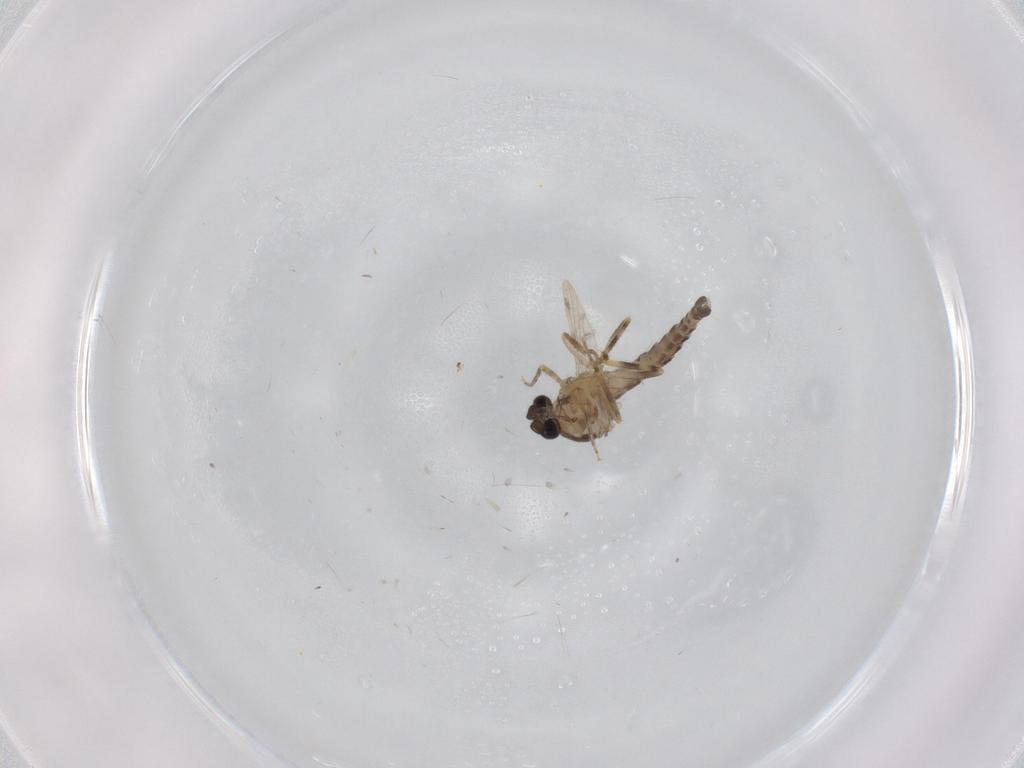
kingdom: Animalia
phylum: Arthropoda
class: Insecta
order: Diptera
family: Ceratopogonidae
